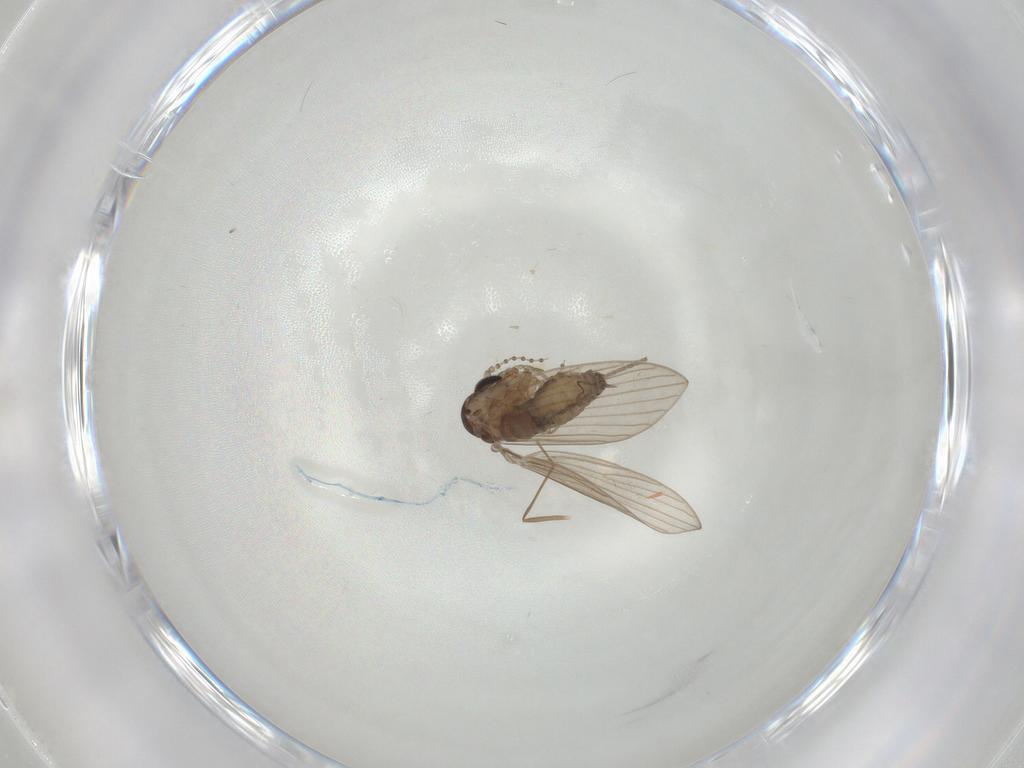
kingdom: Animalia
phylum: Arthropoda
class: Insecta
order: Diptera
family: Psychodidae
